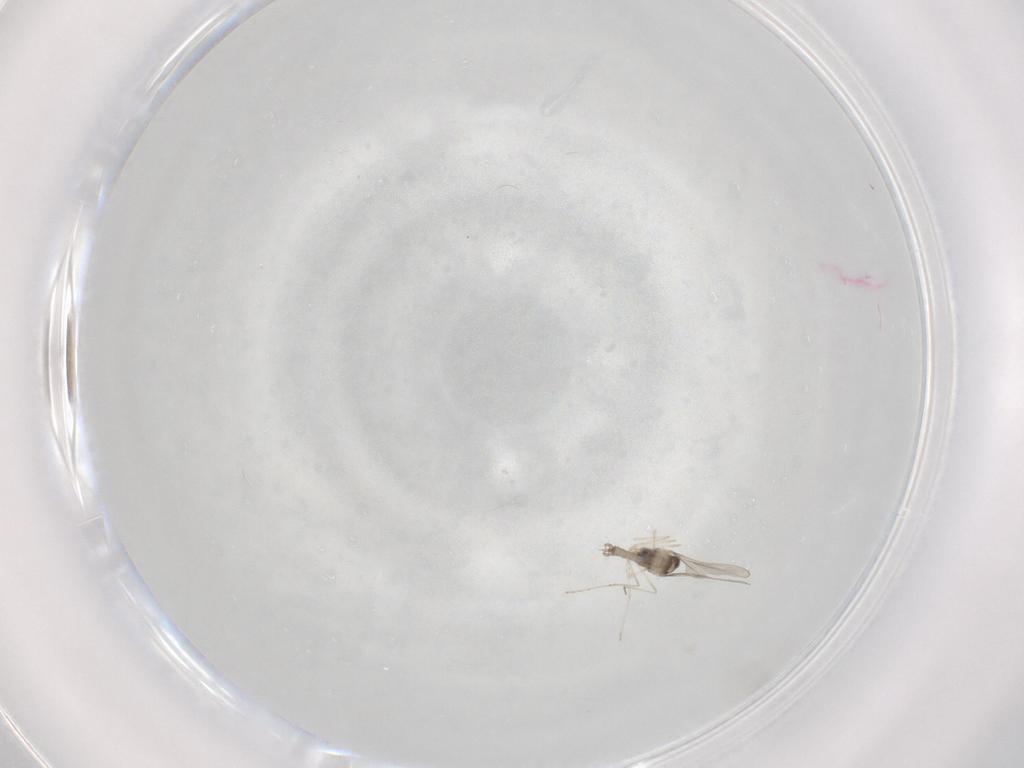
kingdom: Animalia
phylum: Arthropoda
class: Insecta
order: Diptera
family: Cecidomyiidae
